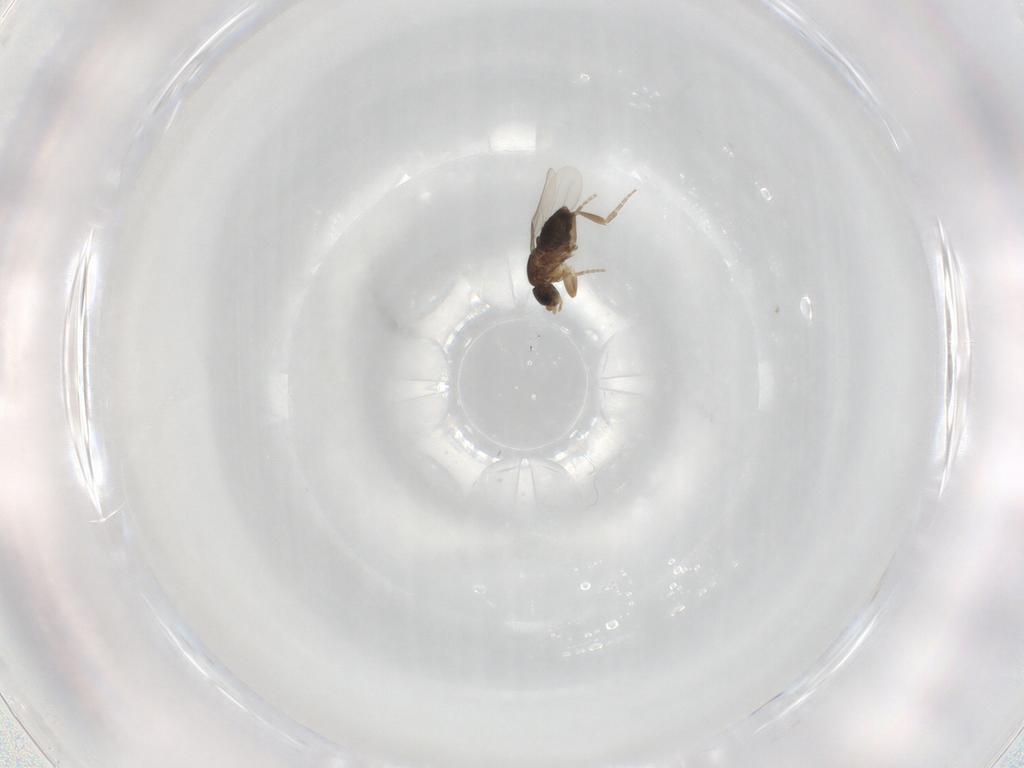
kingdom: Animalia
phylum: Arthropoda
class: Insecta
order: Diptera
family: Phoridae
